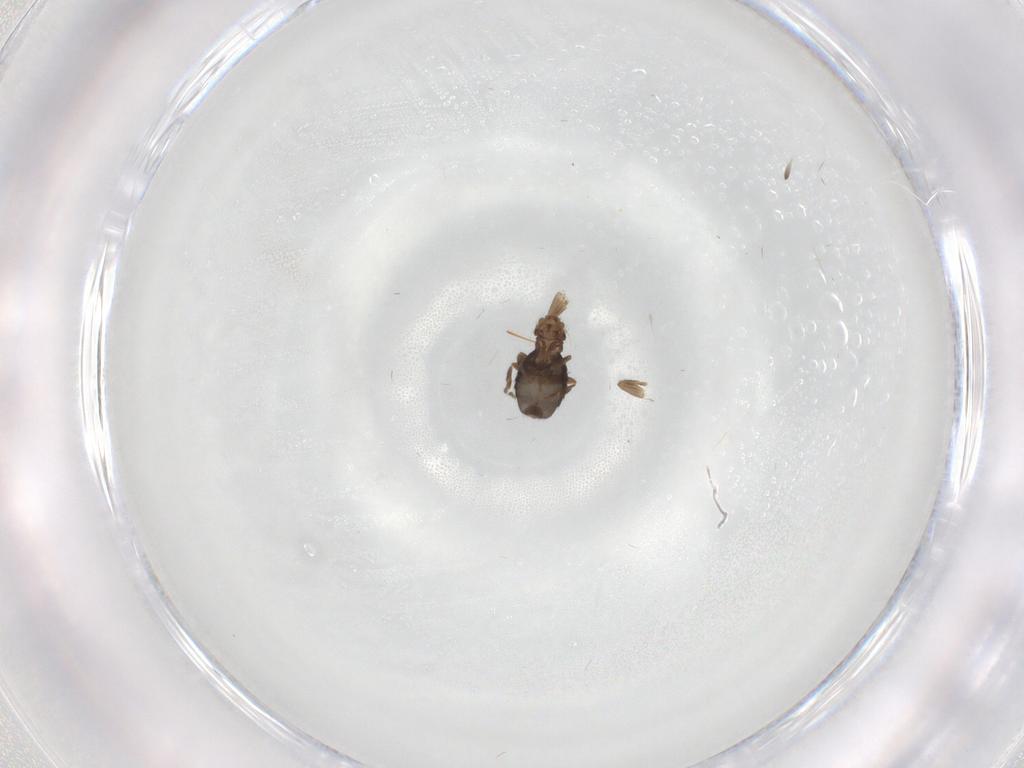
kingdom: Animalia
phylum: Arthropoda
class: Insecta
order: Diptera
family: Phoridae
